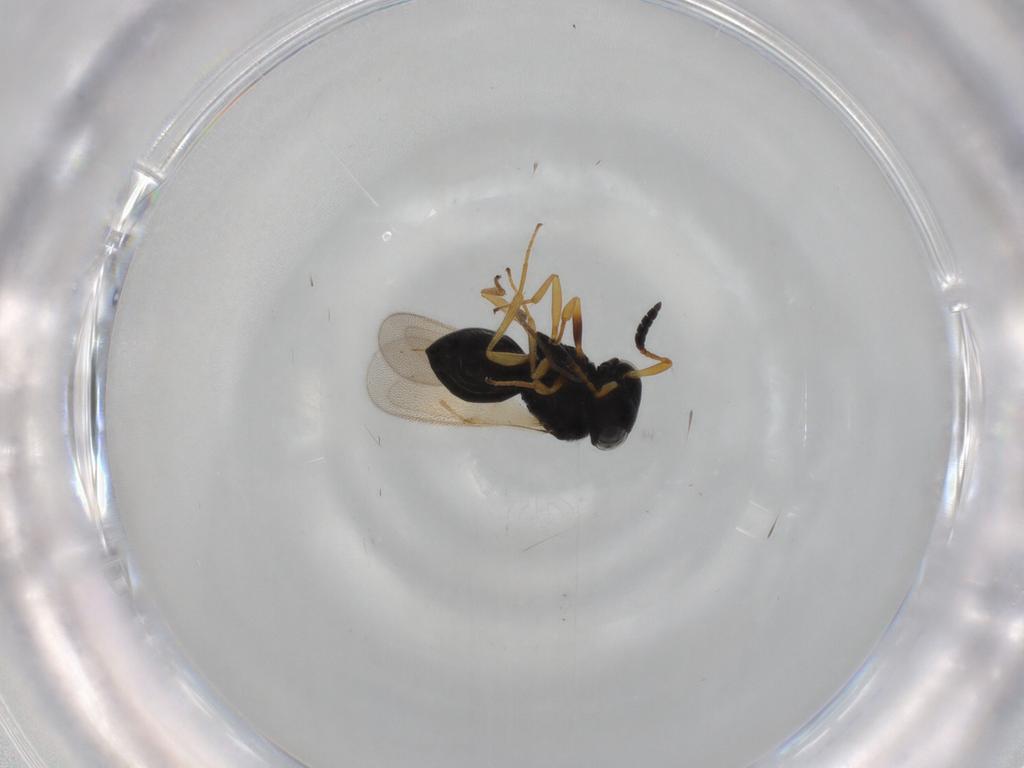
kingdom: Animalia
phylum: Arthropoda
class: Insecta
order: Hymenoptera
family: Scelionidae
